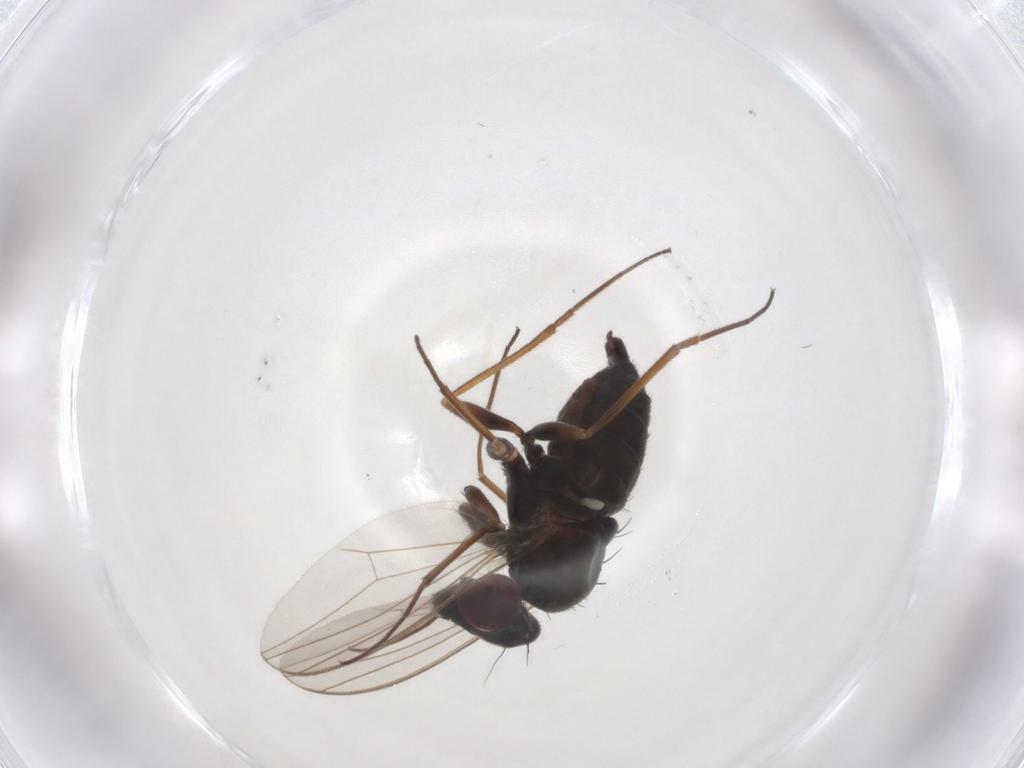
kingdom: Animalia
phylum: Arthropoda
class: Insecta
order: Diptera
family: Dolichopodidae
